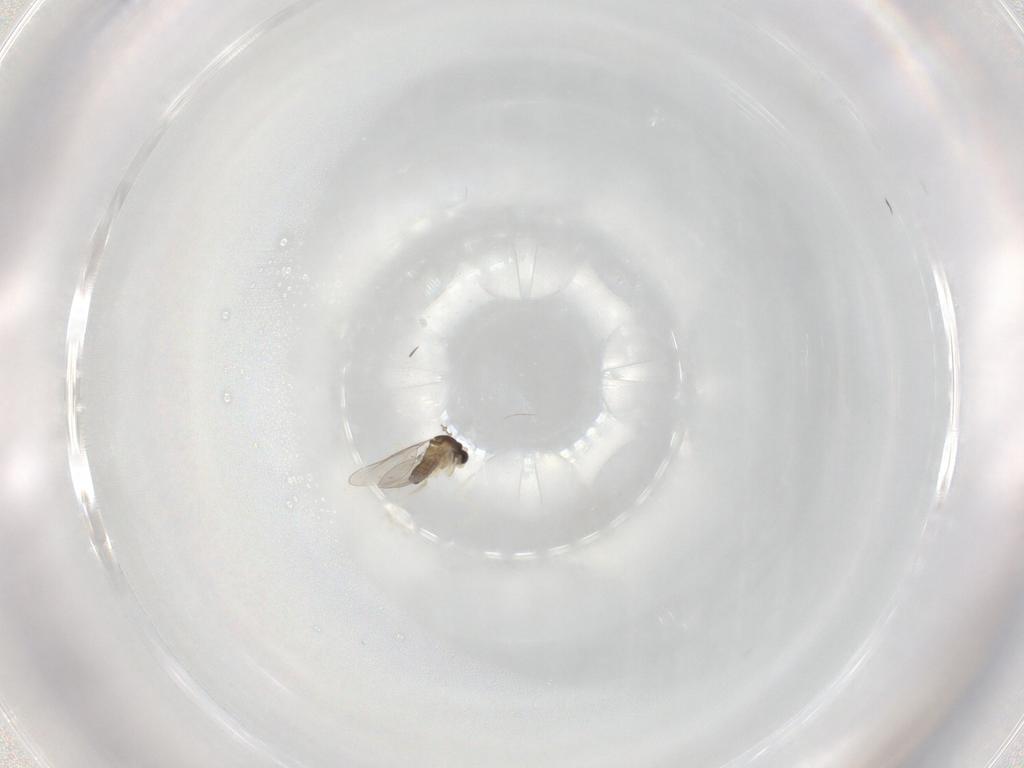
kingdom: Animalia
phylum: Arthropoda
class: Insecta
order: Diptera
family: Cecidomyiidae
